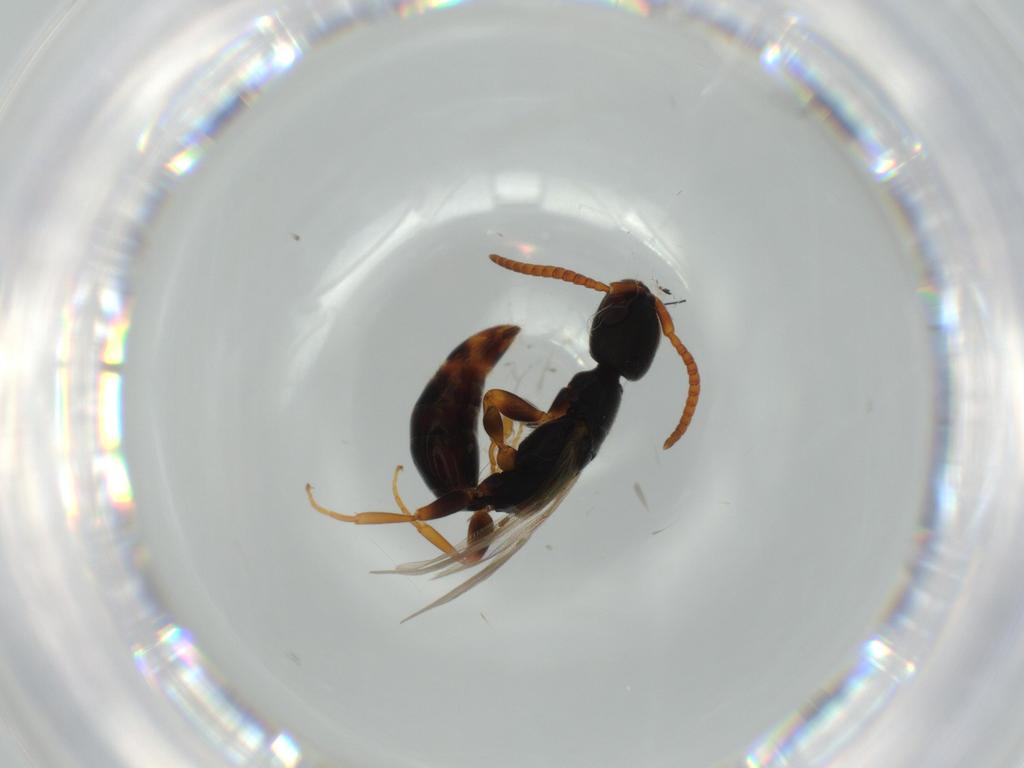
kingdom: Animalia
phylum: Arthropoda
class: Insecta
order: Hymenoptera
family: Bethylidae
